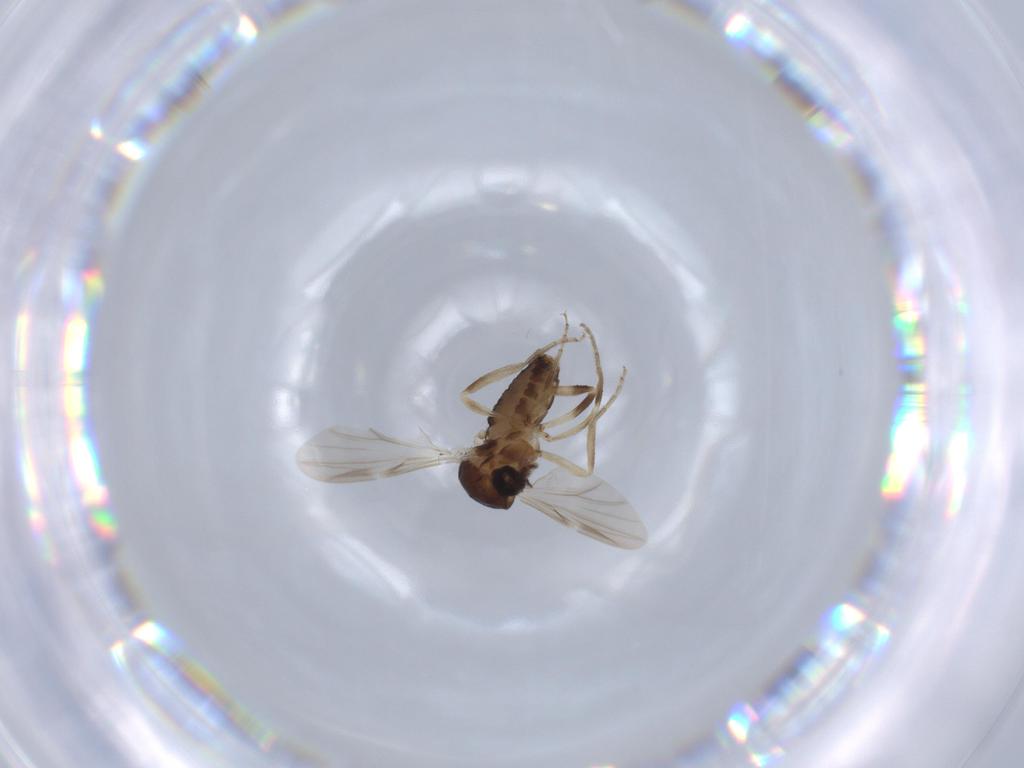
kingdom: Animalia
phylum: Arthropoda
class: Insecta
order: Diptera
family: Ceratopogonidae
